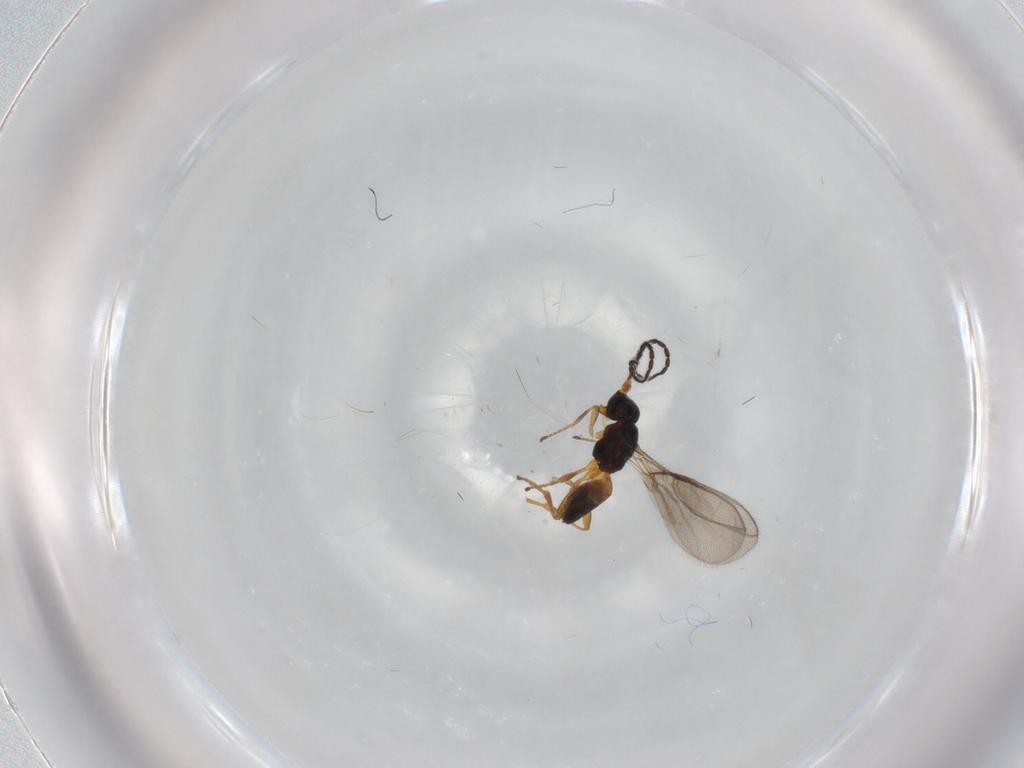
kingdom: Animalia
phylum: Arthropoda
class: Insecta
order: Hymenoptera
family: Braconidae
